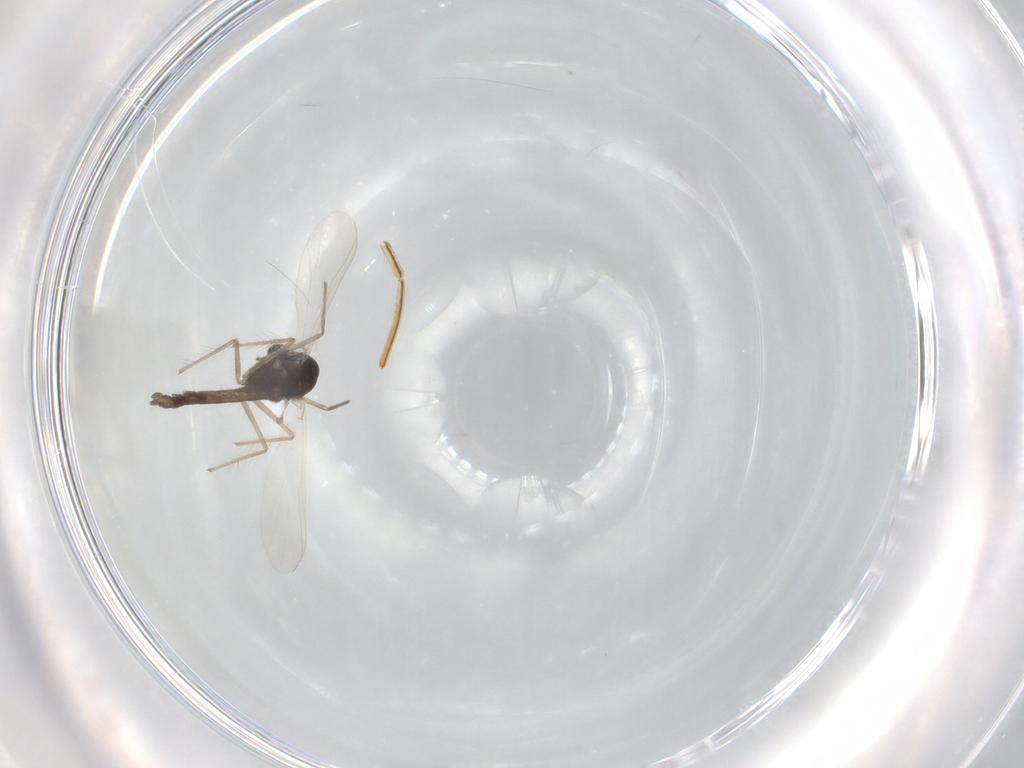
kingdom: Animalia
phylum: Arthropoda
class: Insecta
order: Diptera
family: Chironomidae
